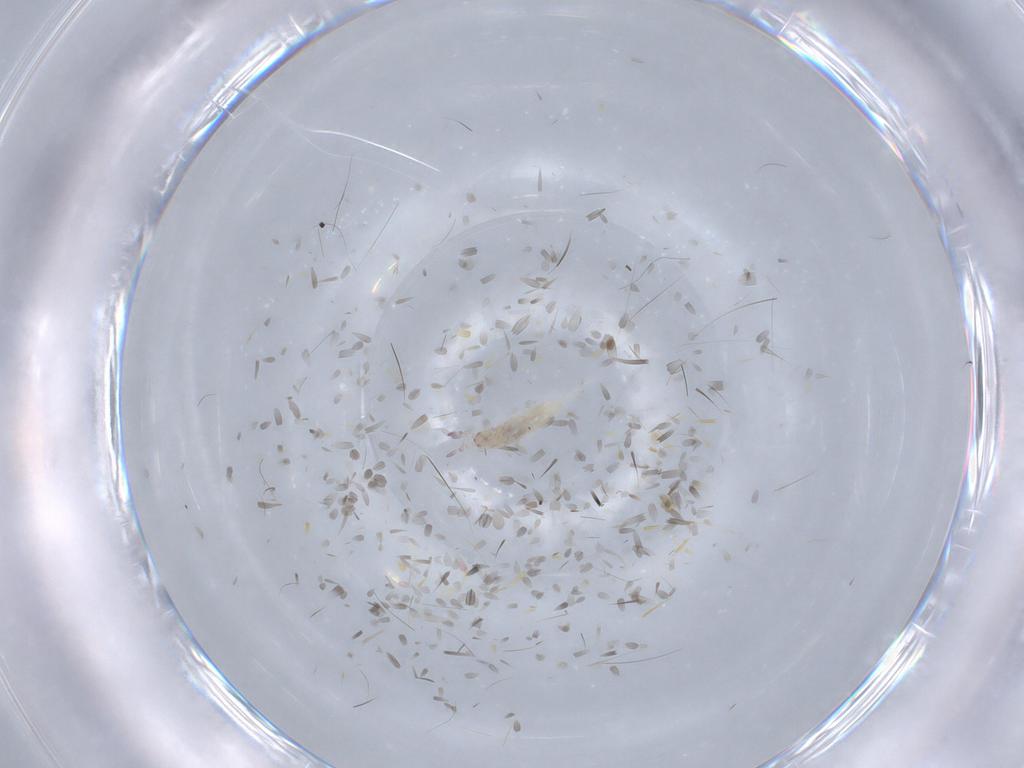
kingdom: Animalia
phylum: Arthropoda
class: Collembola
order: Entomobryomorpha
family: Entomobryidae
